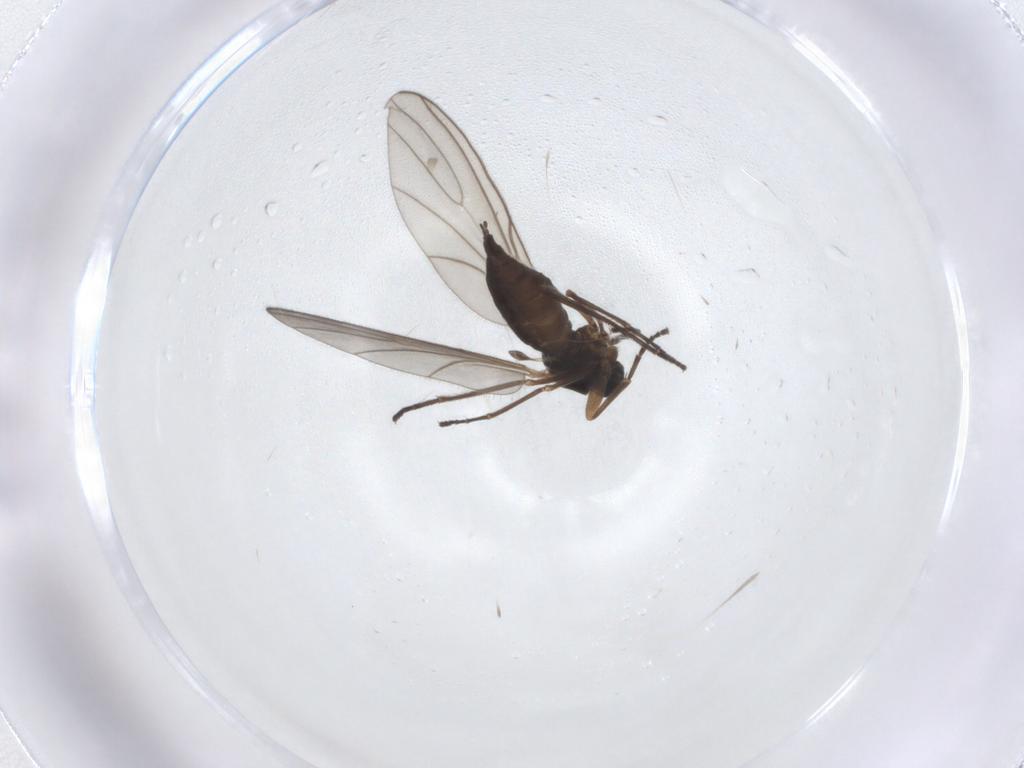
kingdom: Animalia
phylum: Arthropoda
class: Insecta
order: Diptera
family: Sciaridae
